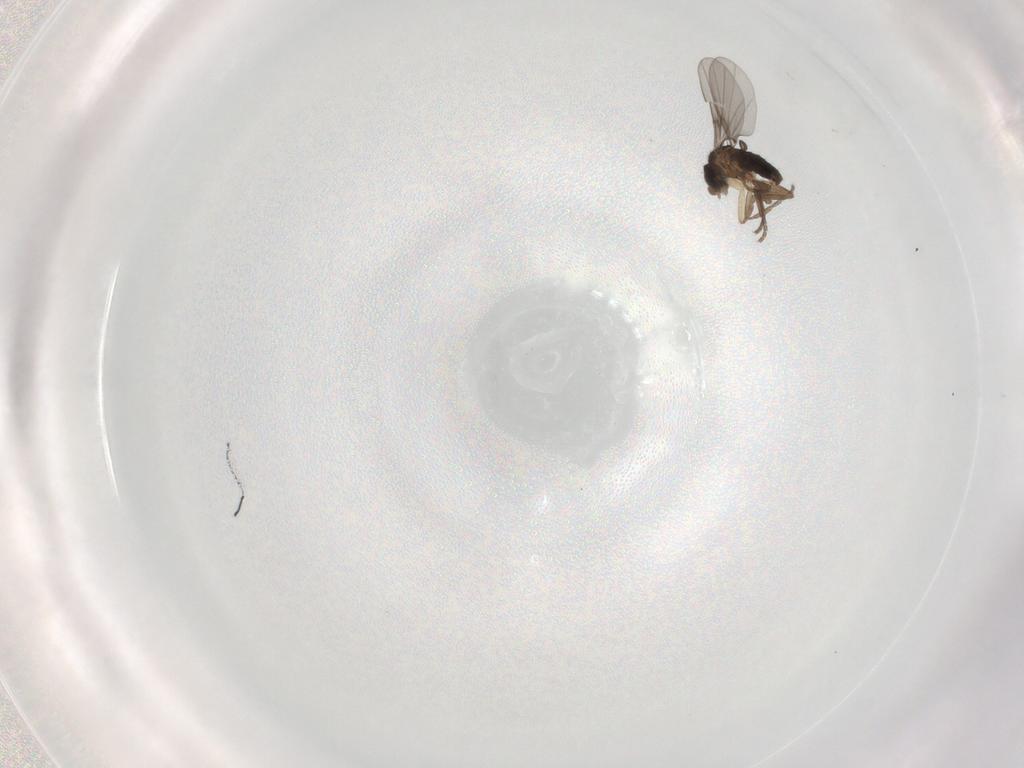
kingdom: Animalia
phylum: Arthropoda
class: Insecta
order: Diptera
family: Phoridae
